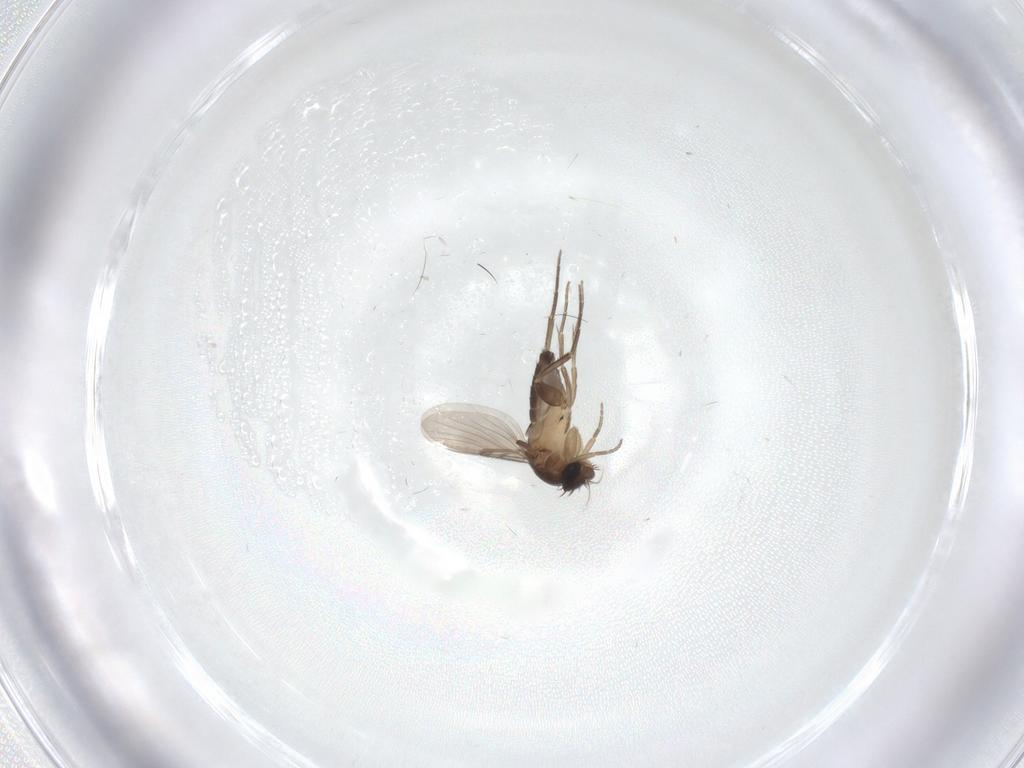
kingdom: Animalia
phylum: Arthropoda
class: Insecta
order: Diptera
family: Phoridae
